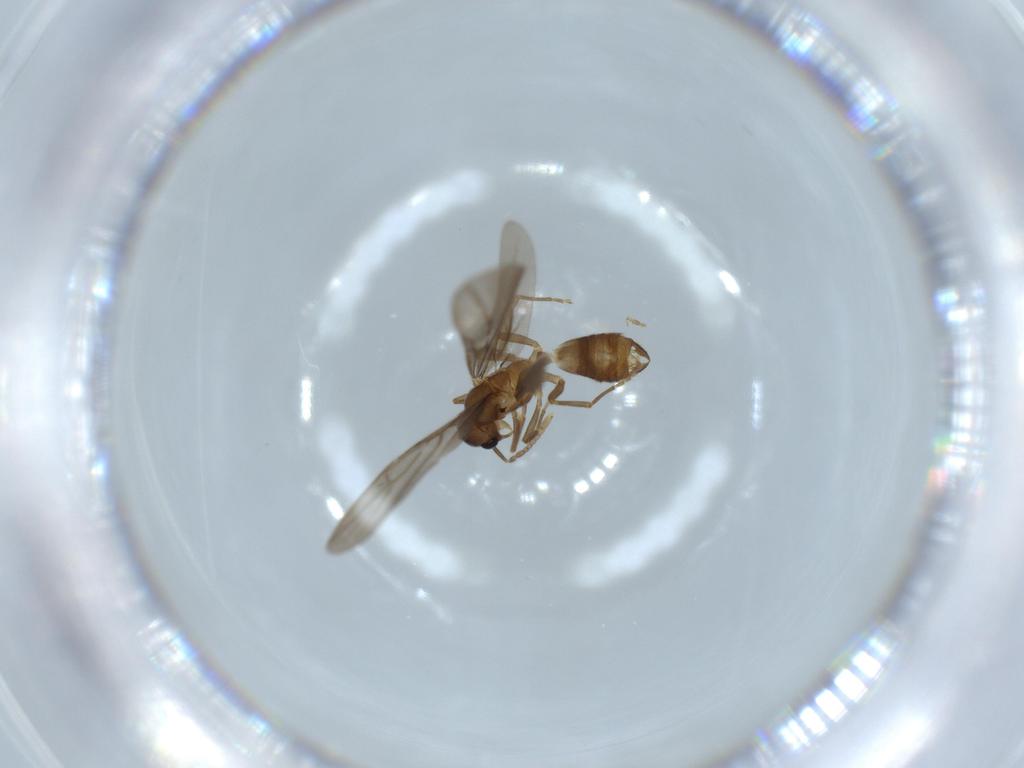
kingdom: Animalia
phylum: Arthropoda
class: Insecta
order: Hymenoptera
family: Formicidae
